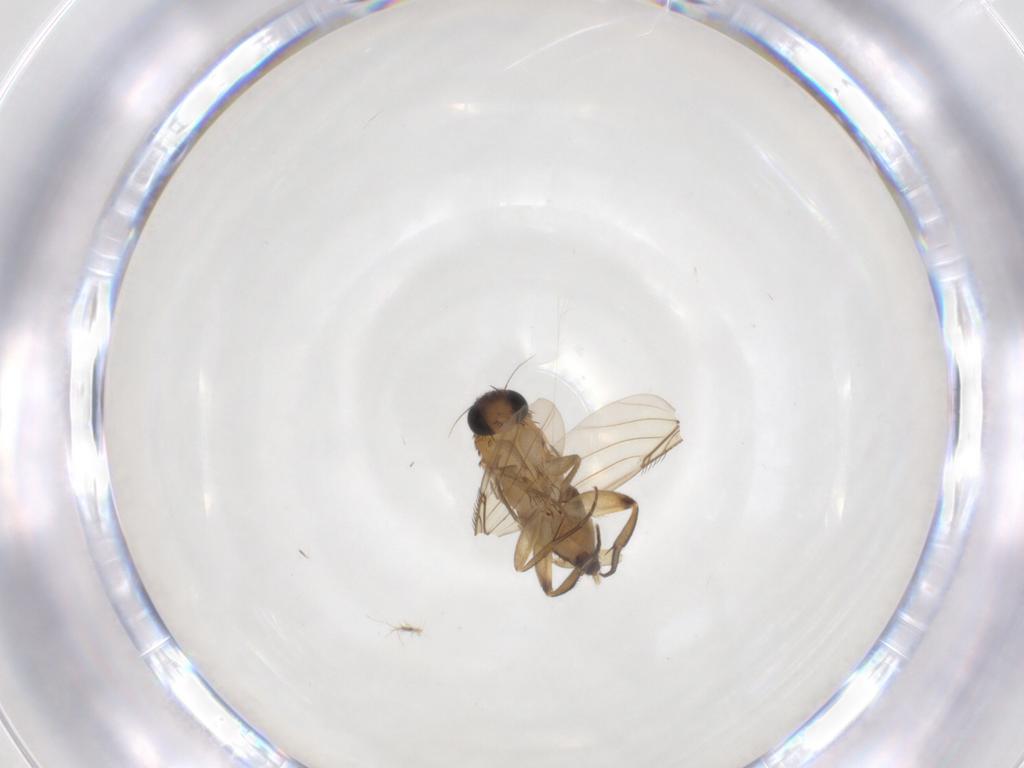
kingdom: Animalia
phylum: Arthropoda
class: Insecta
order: Diptera
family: Phoridae
